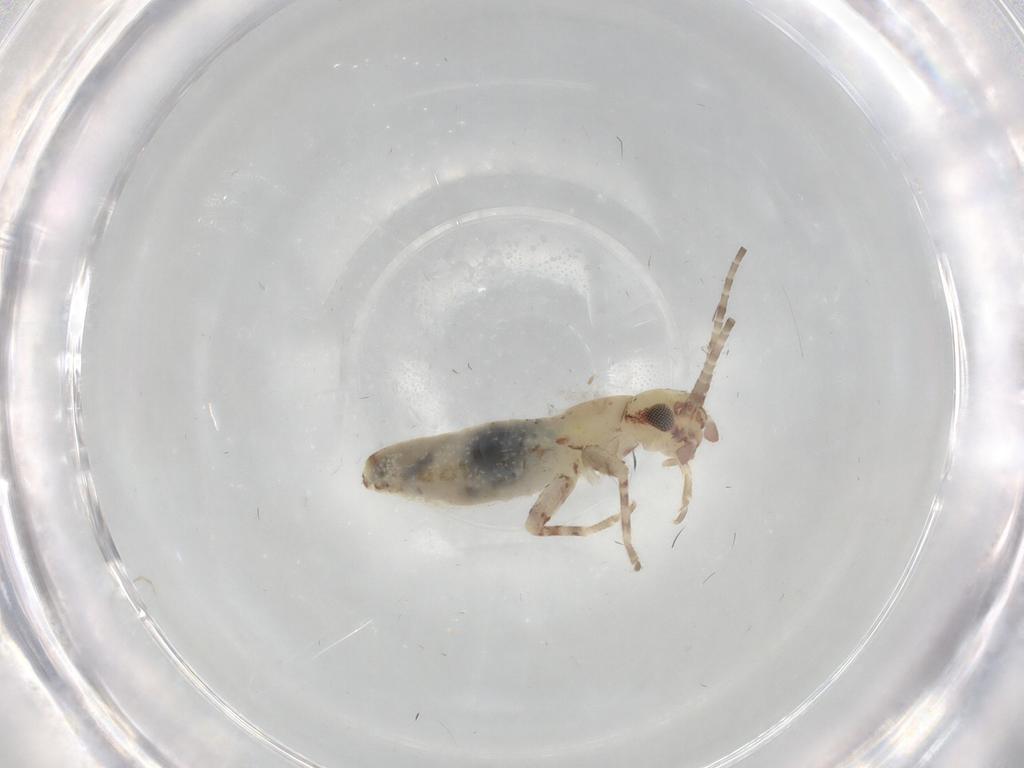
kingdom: Animalia
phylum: Arthropoda
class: Insecta
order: Orthoptera
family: Mogoplistidae
